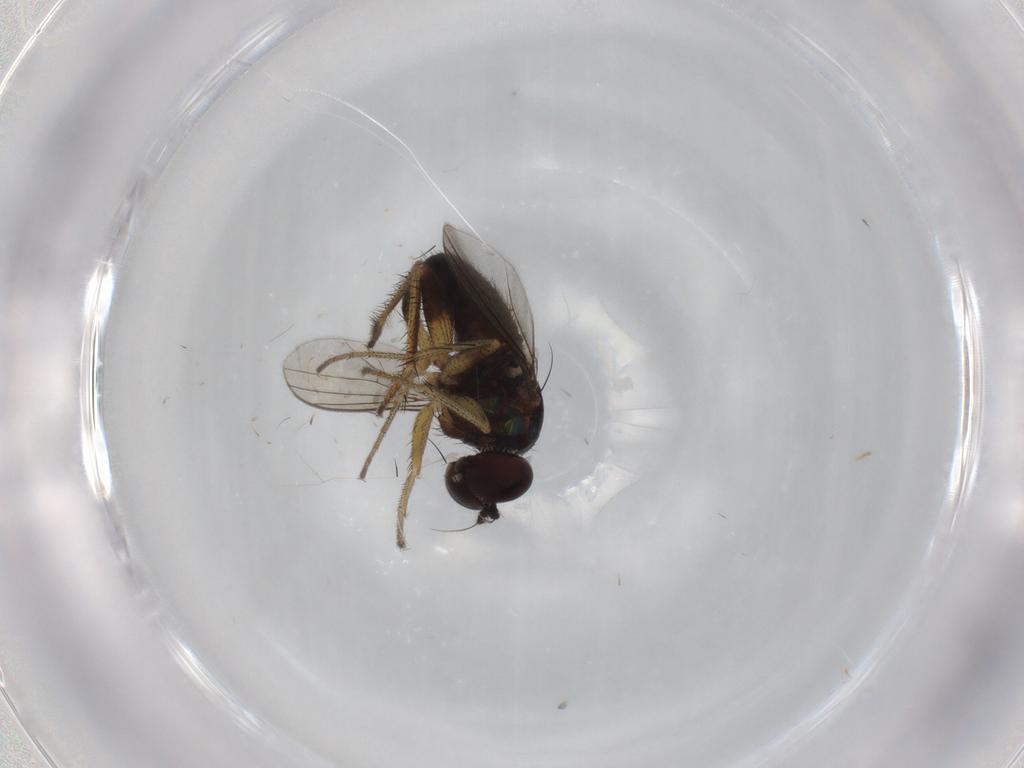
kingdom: Animalia
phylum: Arthropoda
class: Insecta
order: Diptera
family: Dolichopodidae
